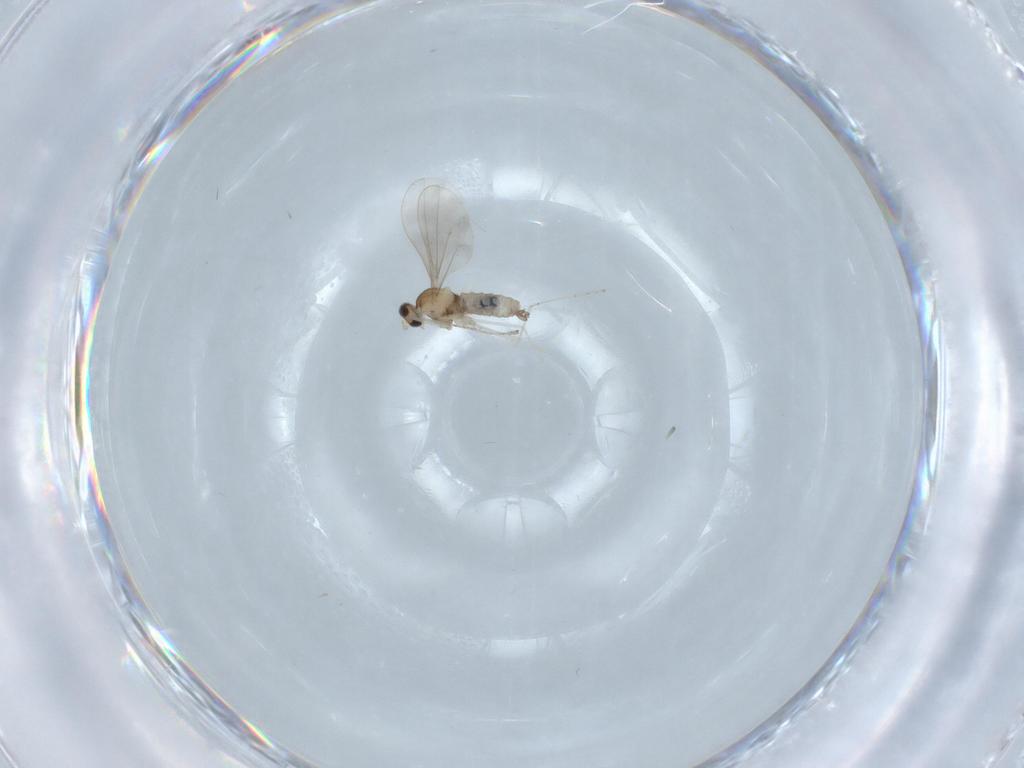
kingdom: Animalia
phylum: Arthropoda
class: Insecta
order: Diptera
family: Cecidomyiidae
